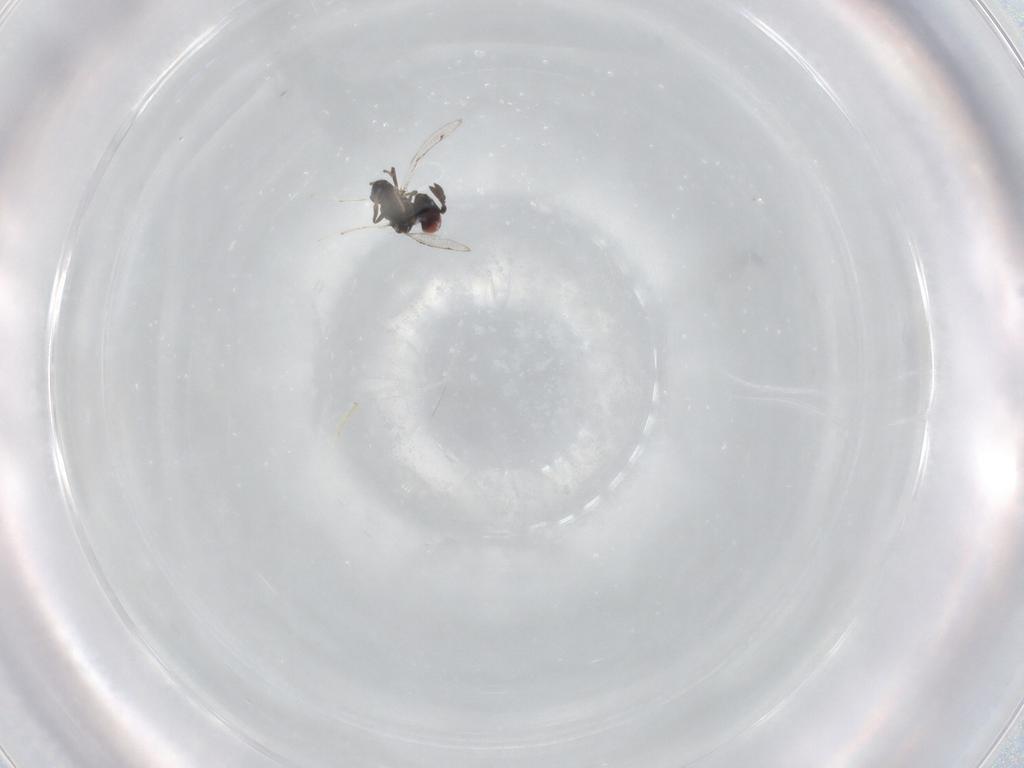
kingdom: Animalia
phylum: Arthropoda
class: Insecta
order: Hymenoptera
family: Pirenidae
